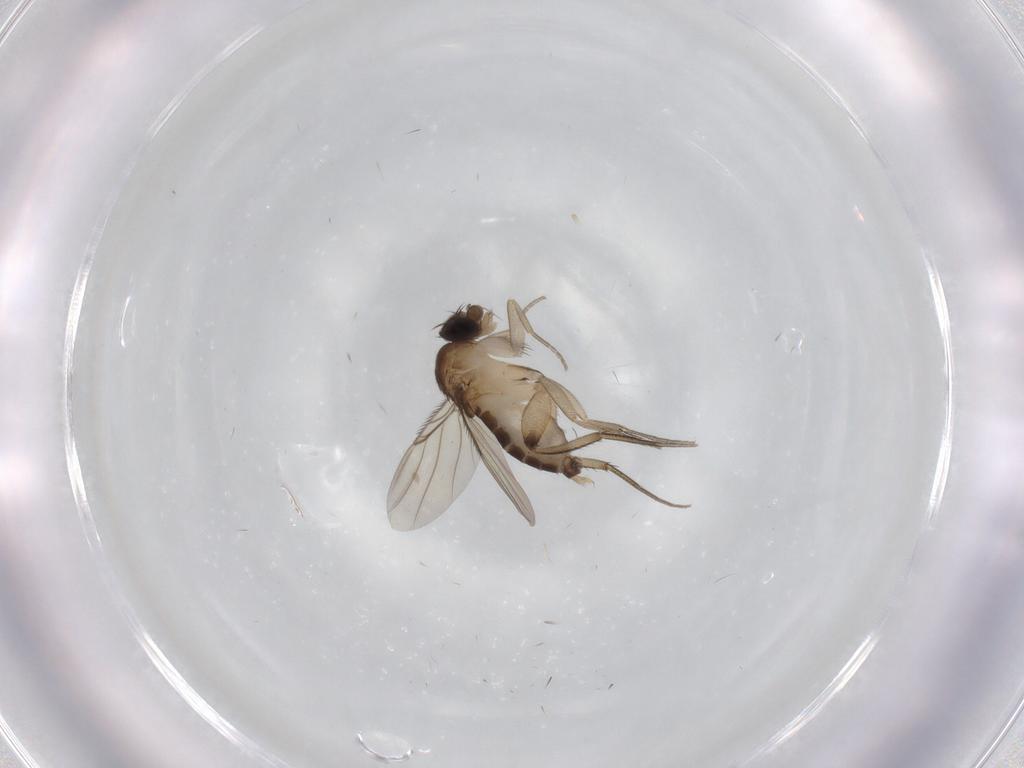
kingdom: Animalia
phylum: Arthropoda
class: Insecta
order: Diptera
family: Phoridae
